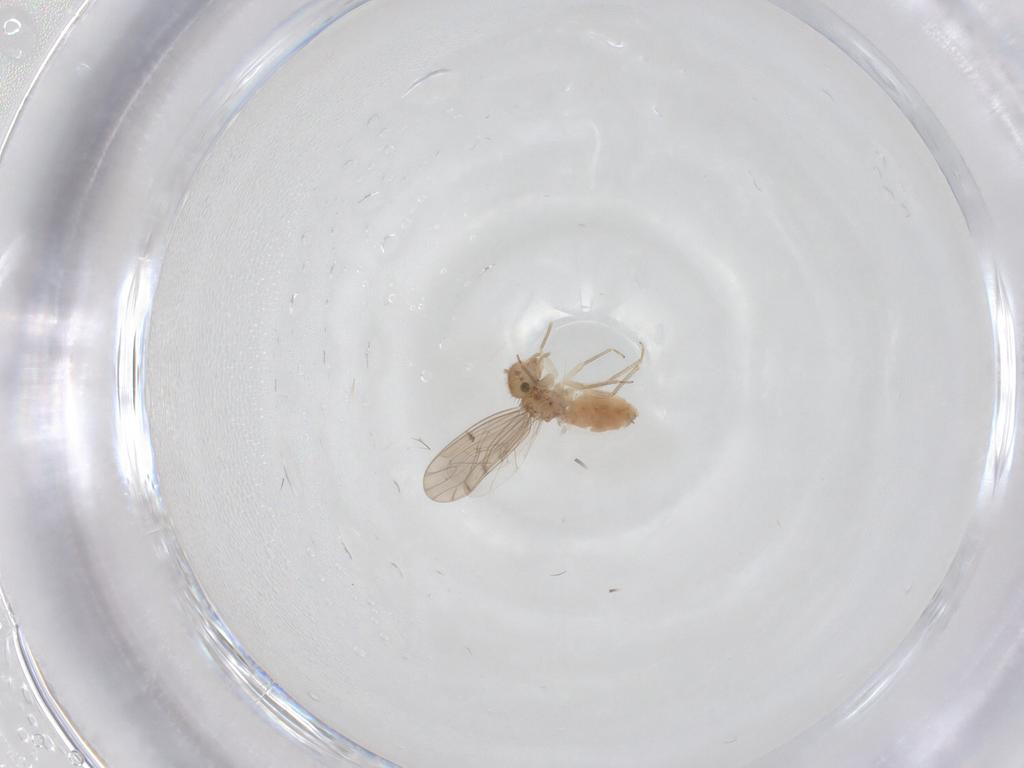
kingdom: Animalia
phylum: Arthropoda
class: Insecta
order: Psocodea
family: Ectopsocidae
